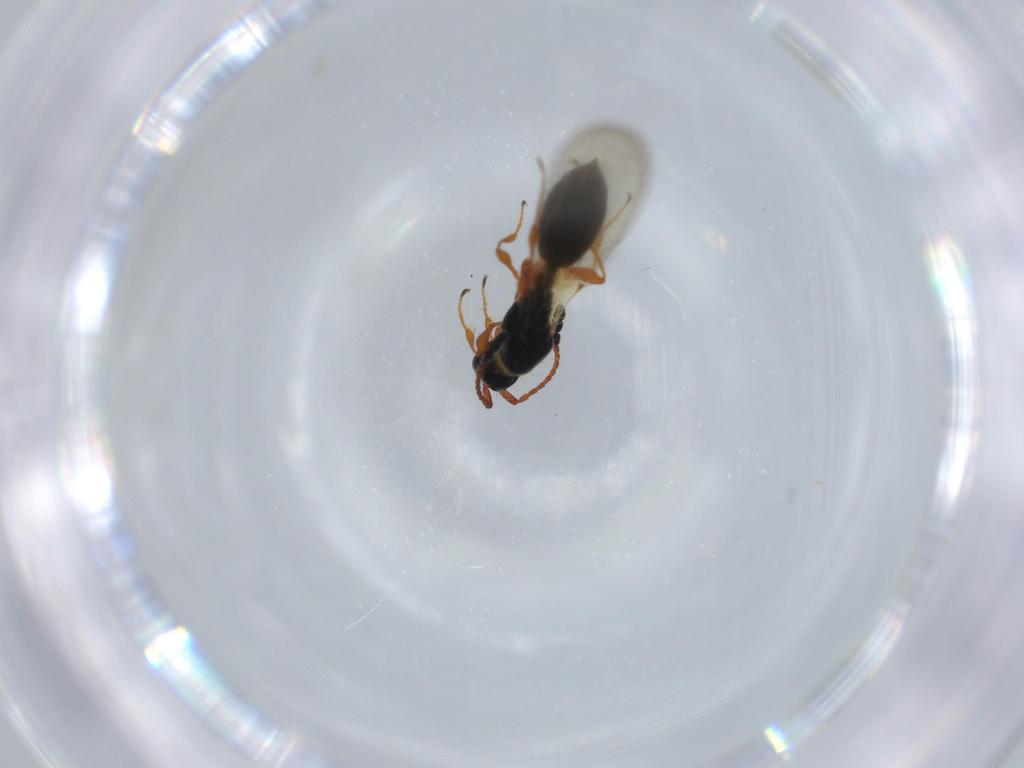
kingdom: Animalia
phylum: Arthropoda
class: Insecta
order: Hymenoptera
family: Diapriidae
